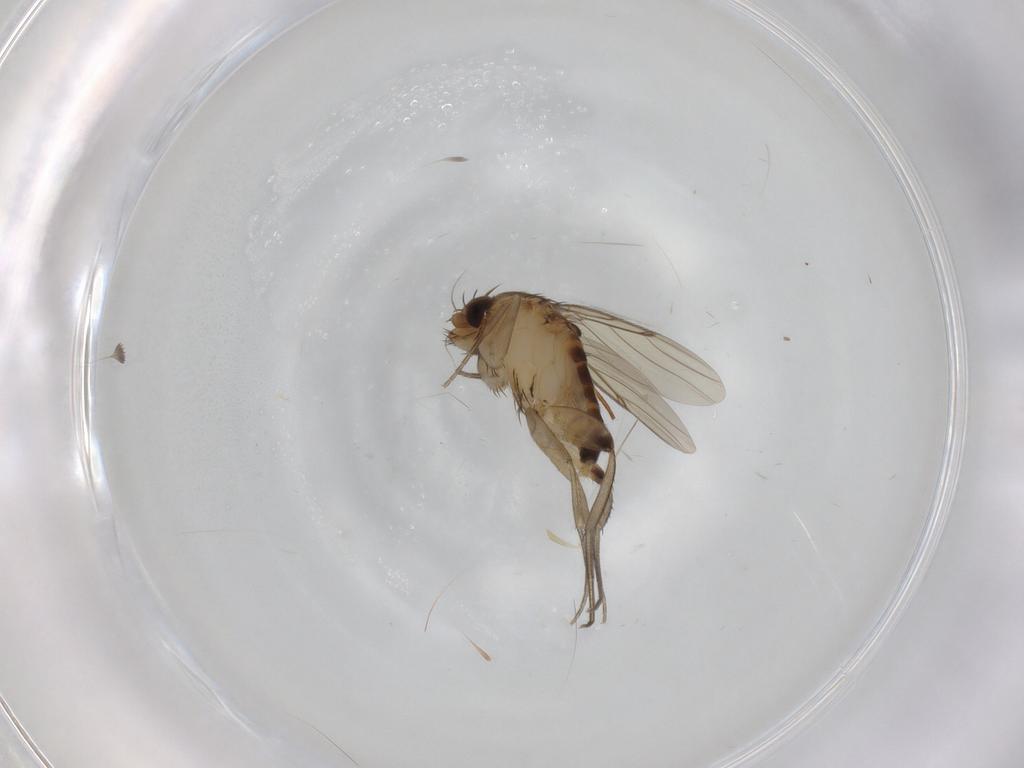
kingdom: Animalia
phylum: Arthropoda
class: Insecta
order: Diptera
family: Phoridae
